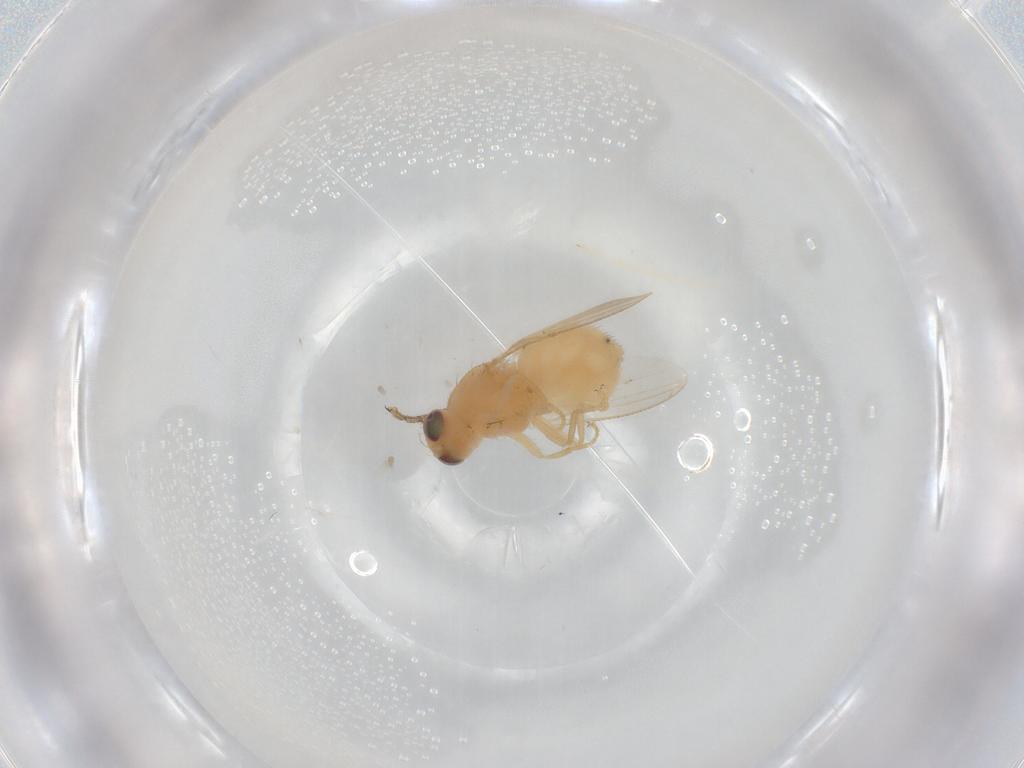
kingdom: Animalia
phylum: Arthropoda
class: Insecta
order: Diptera
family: Chyromyidae
